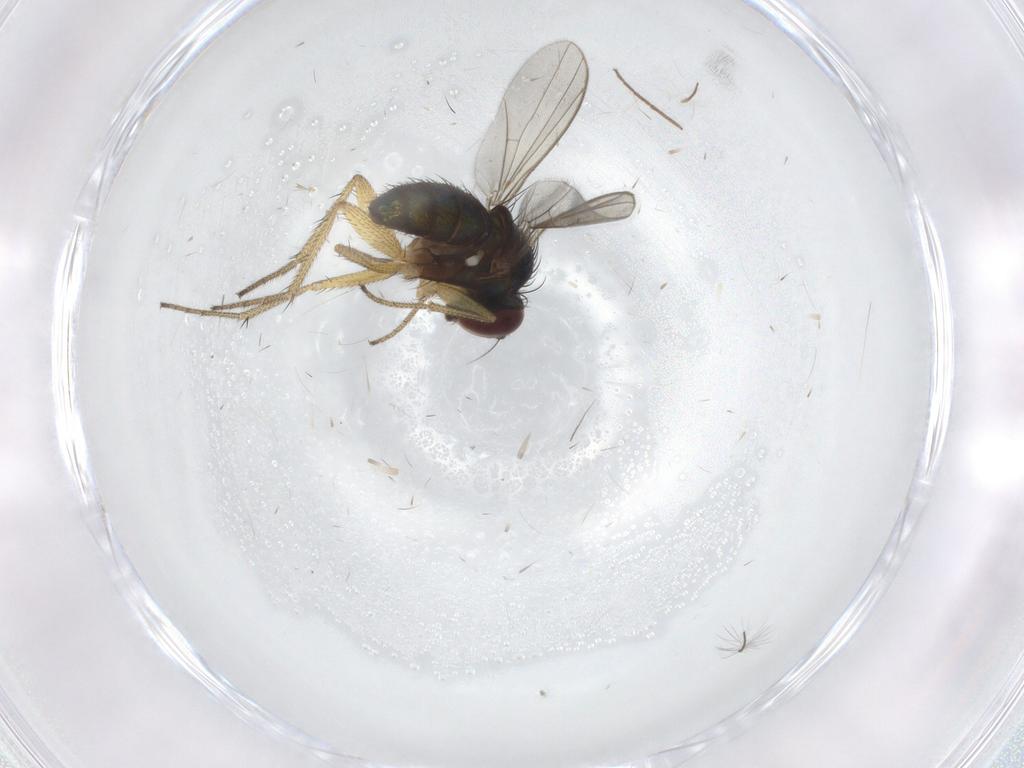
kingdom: Animalia
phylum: Arthropoda
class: Insecta
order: Diptera
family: Dolichopodidae
